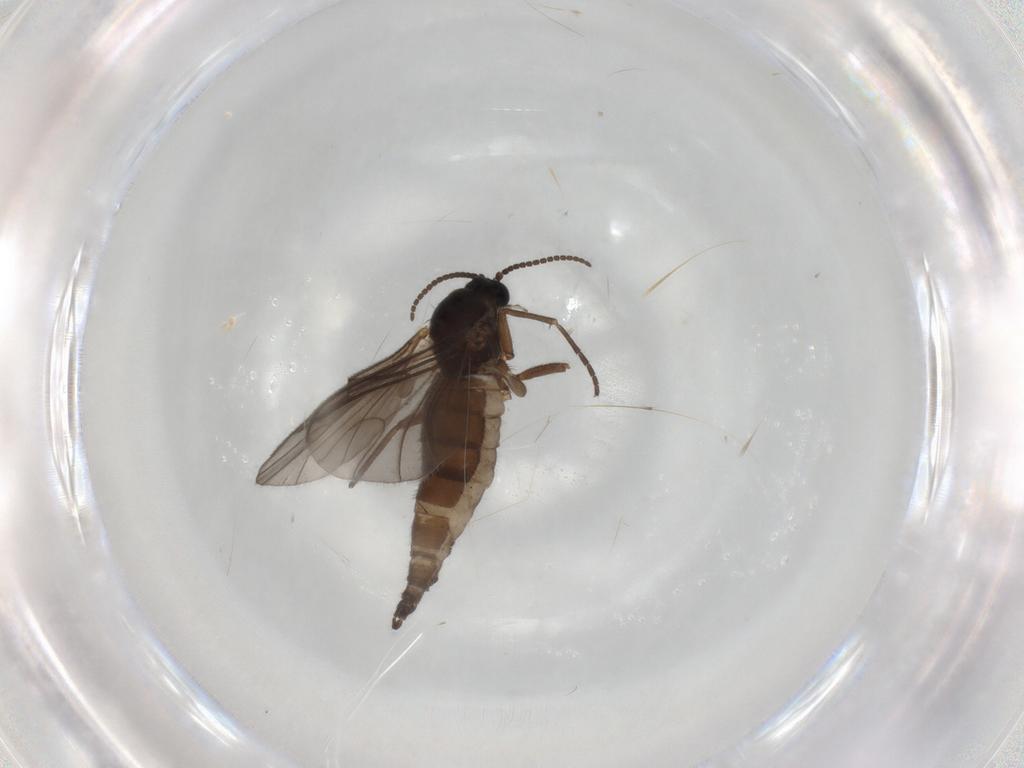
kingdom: Animalia
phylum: Arthropoda
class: Insecta
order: Diptera
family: Sciaridae
